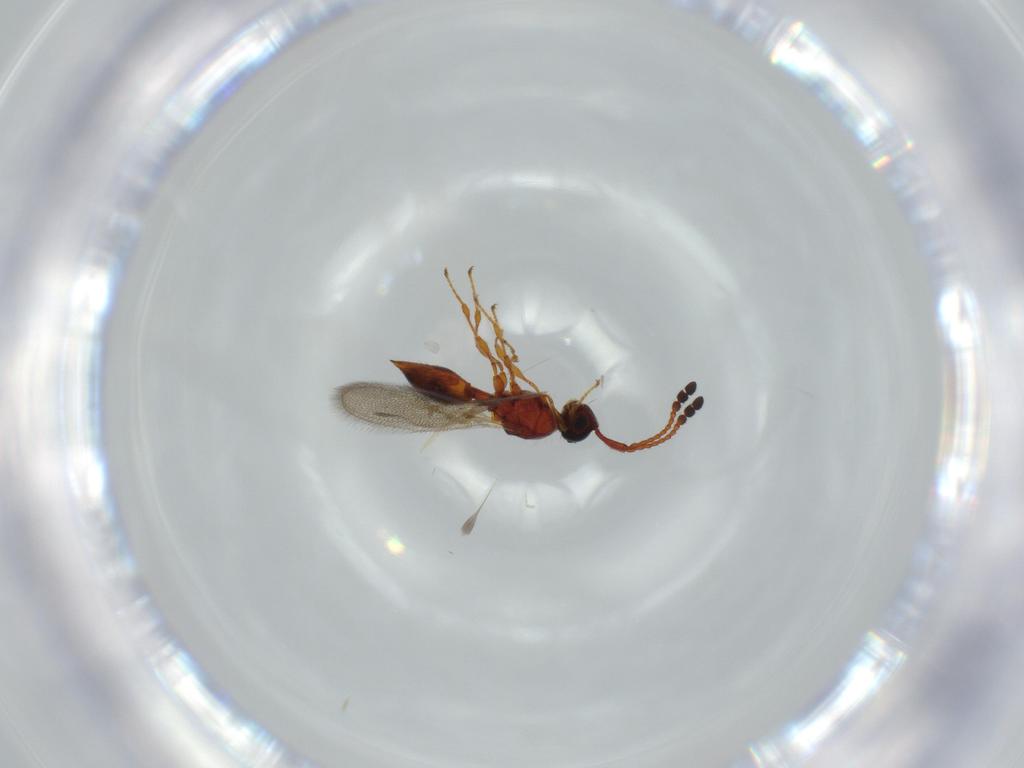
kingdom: Animalia
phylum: Arthropoda
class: Insecta
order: Hymenoptera
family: Diapriidae
